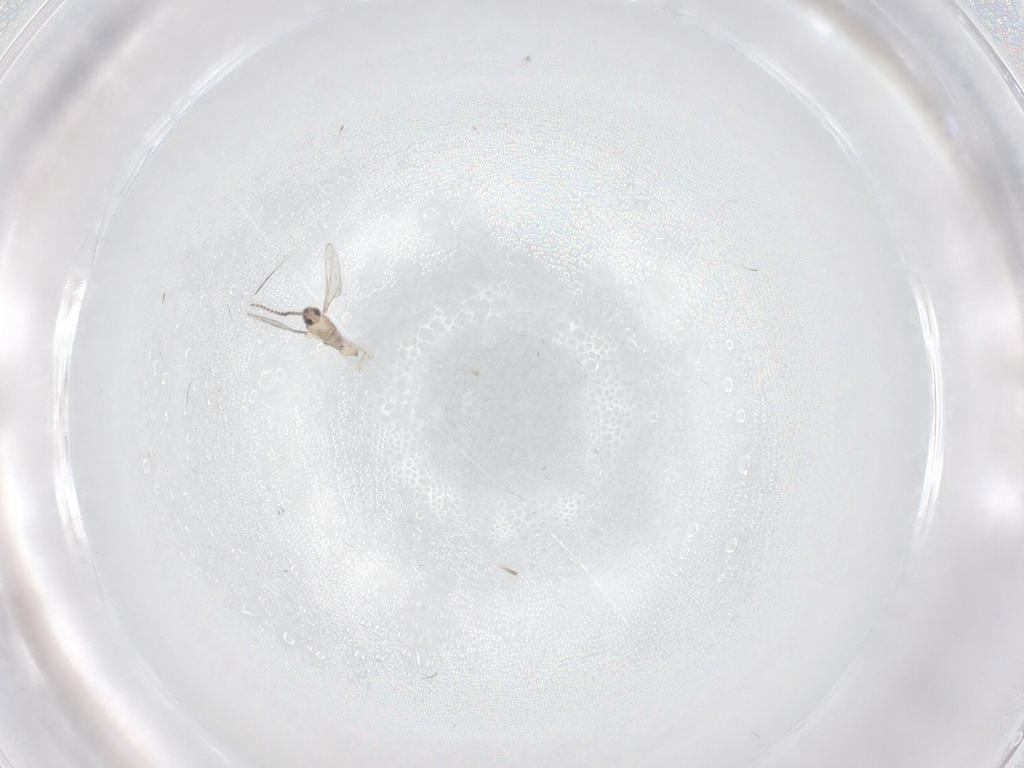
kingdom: Animalia
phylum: Arthropoda
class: Insecta
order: Diptera
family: Cecidomyiidae
